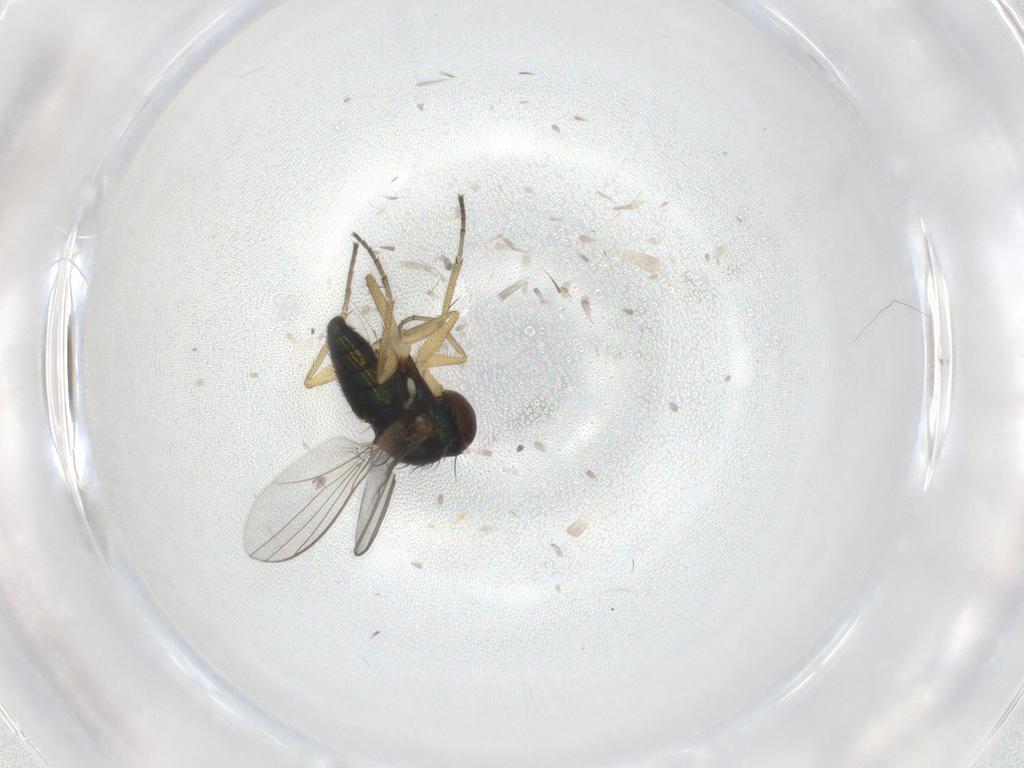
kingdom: Animalia
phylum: Arthropoda
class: Insecta
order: Diptera
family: Dolichopodidae
